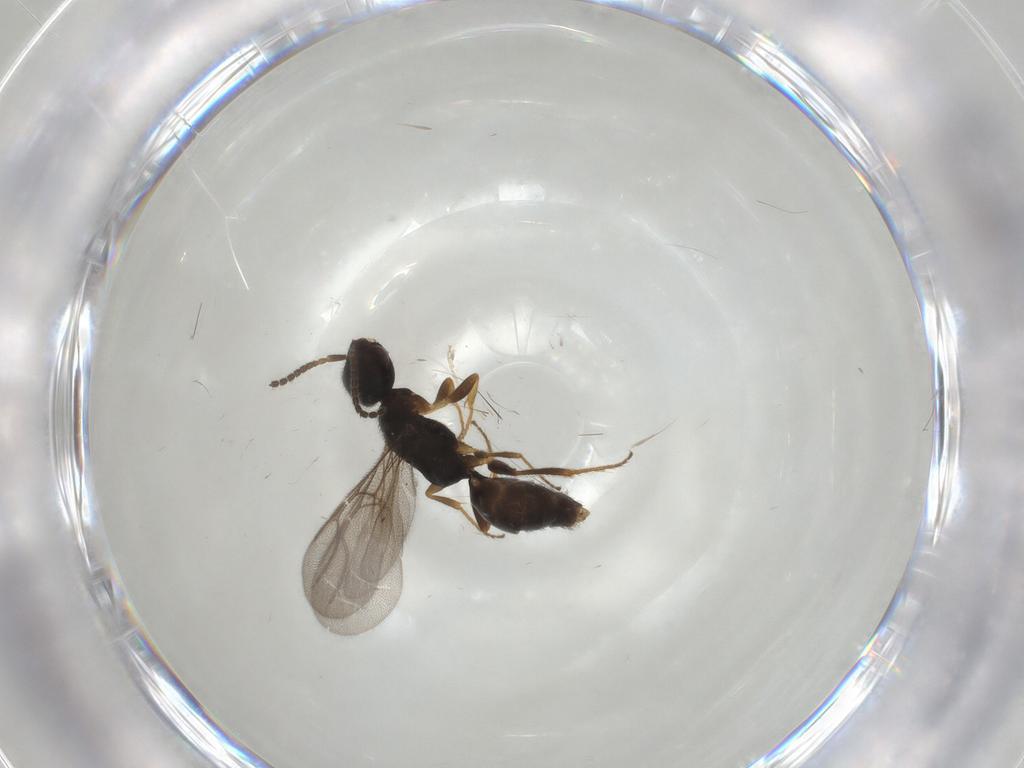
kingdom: Animalia
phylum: Arthropoda
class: Insecta
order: Hymenoptera
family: Bethylidae
